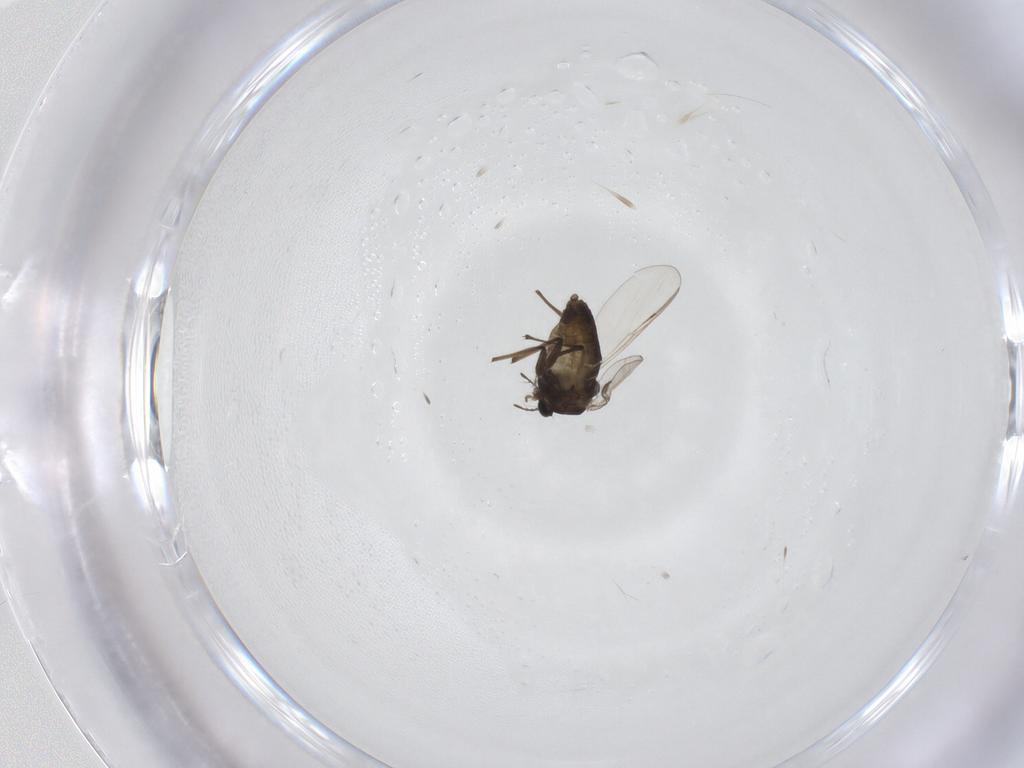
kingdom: Animalia
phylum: Arthropoda
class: Insecta
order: Diptera
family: Chironomidae
